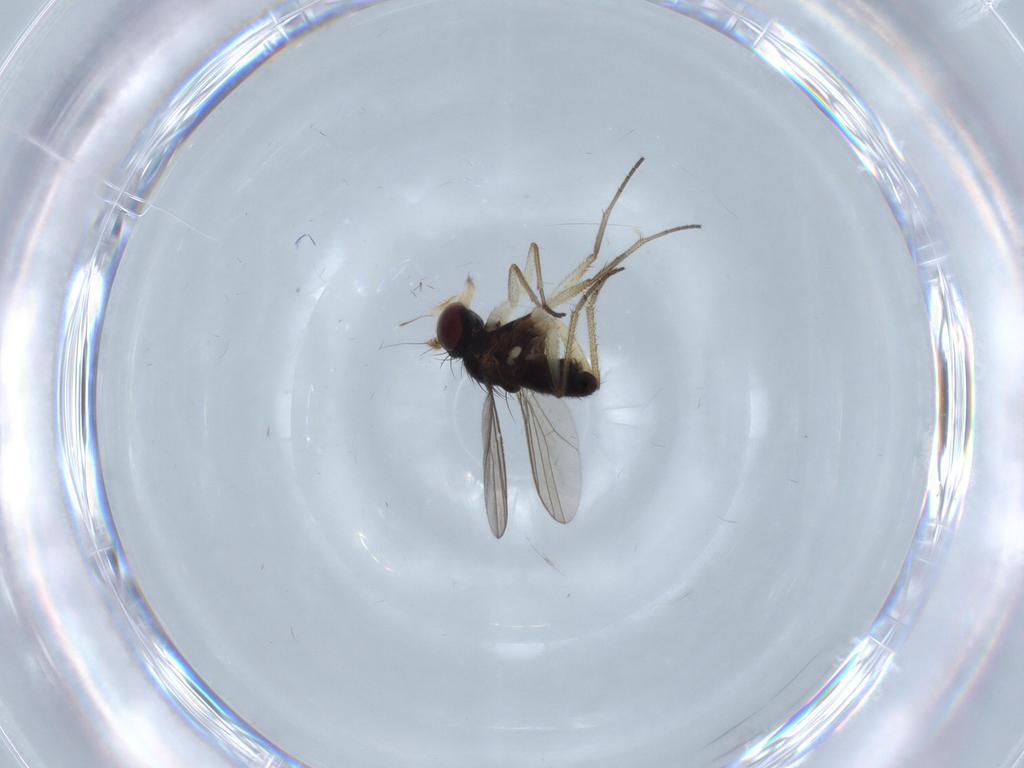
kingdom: Animalia
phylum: Arthropoda
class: Insecta
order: Diptera
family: Dolichopodidae
